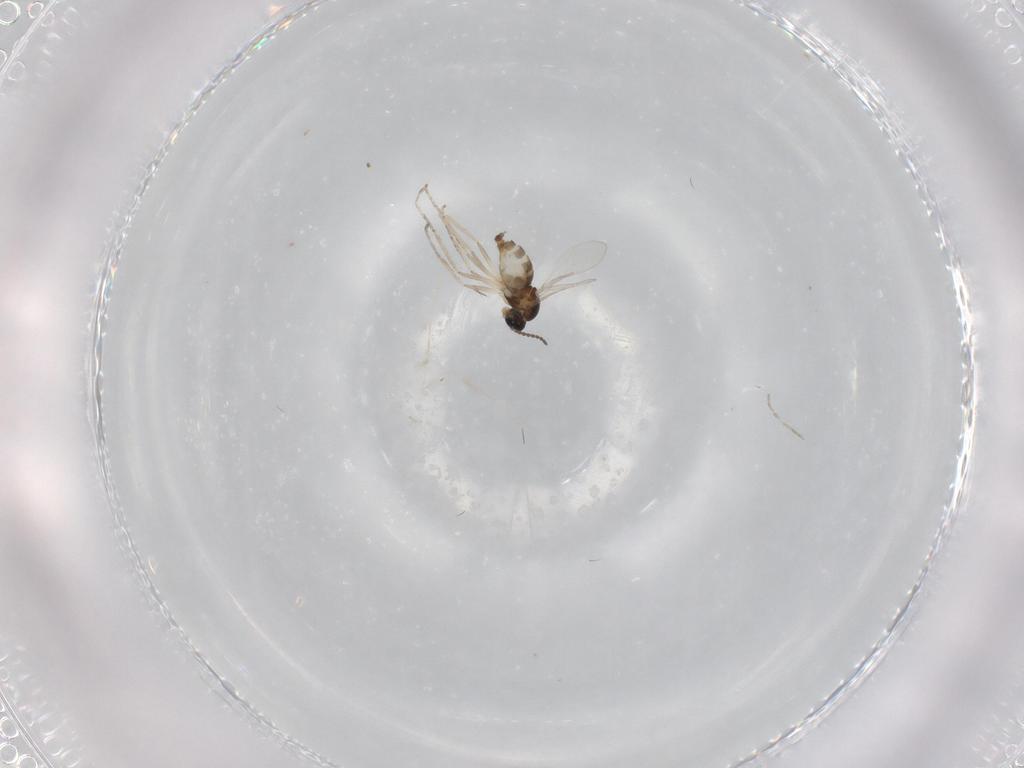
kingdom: Animalia
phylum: Arthropoda
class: Insecta
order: Diptera
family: Cecidomyiidae
